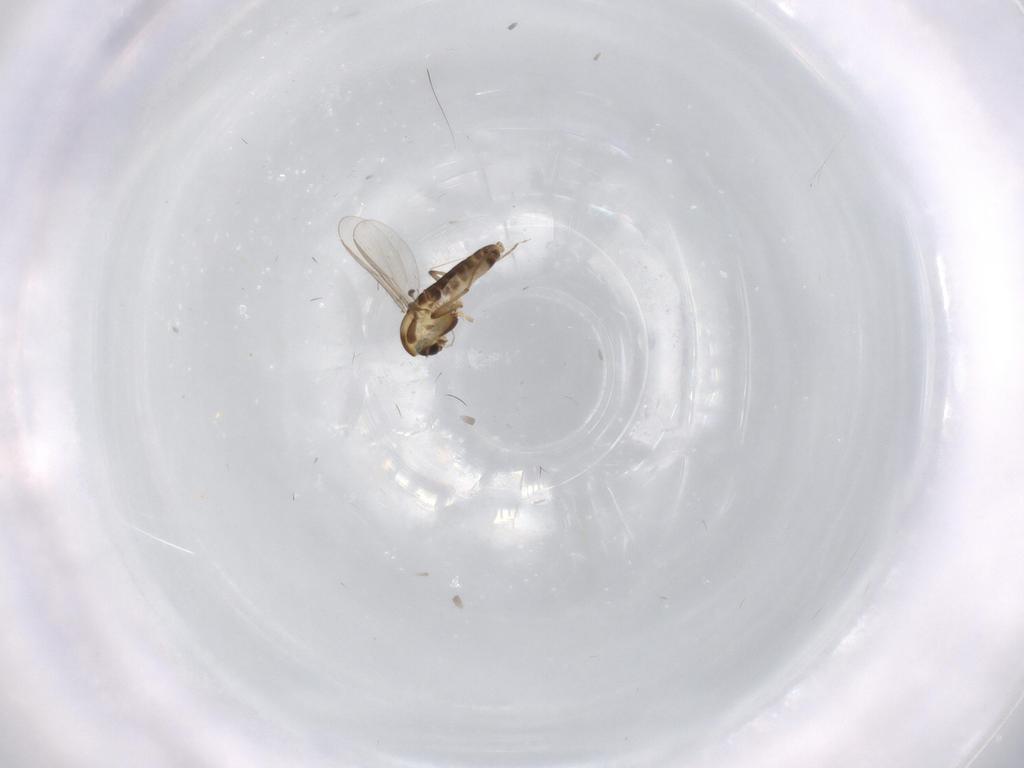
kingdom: Animalia
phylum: Arthropoda
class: Insecta
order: Diptera
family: Chironomidae
